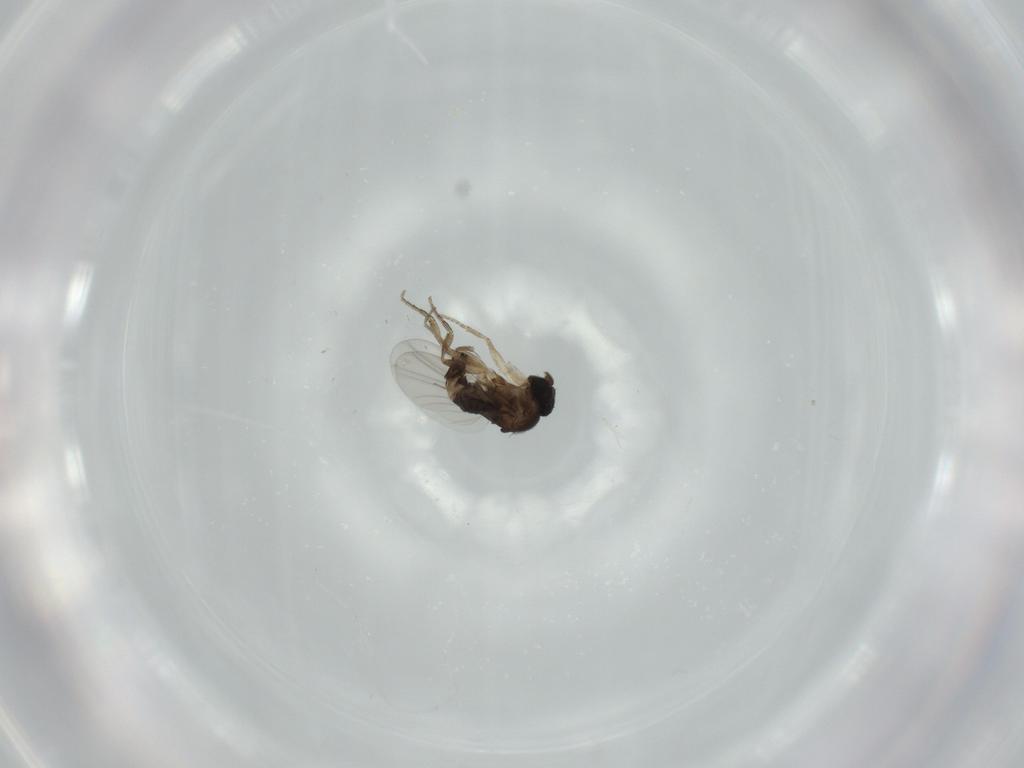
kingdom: Animalia
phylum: Arthropoda
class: Insecta
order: Diptera
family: Phoridae
